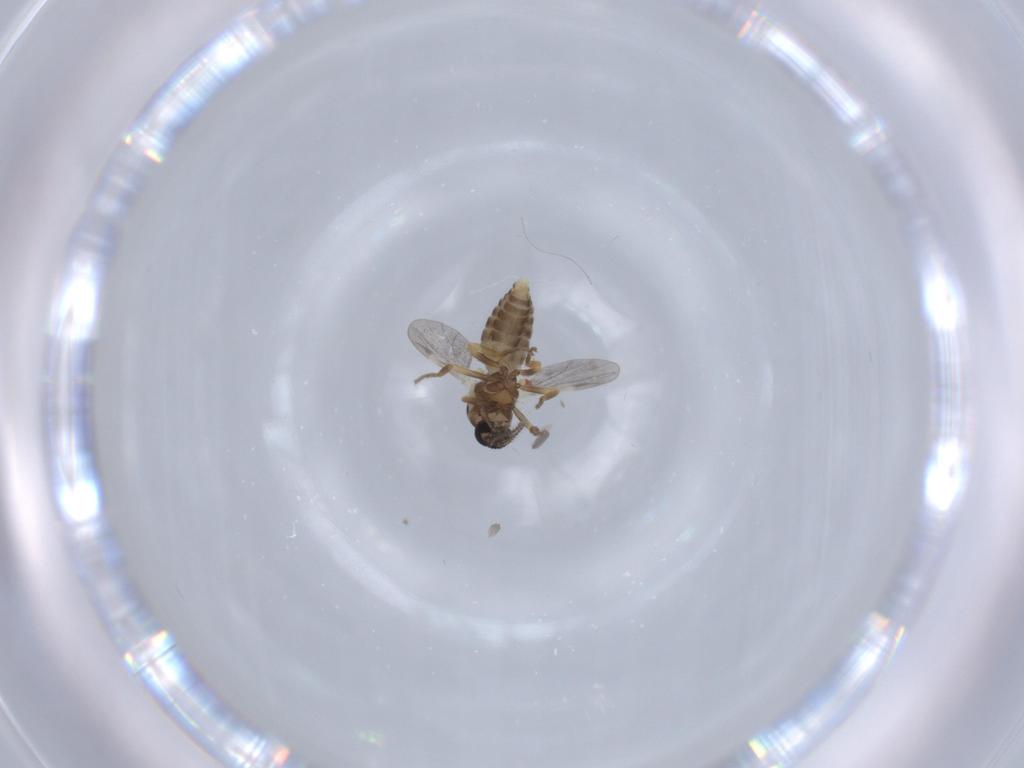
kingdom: Animalia
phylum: Arthropoda
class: Insecta
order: Diptera
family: Ceratopogonidae
